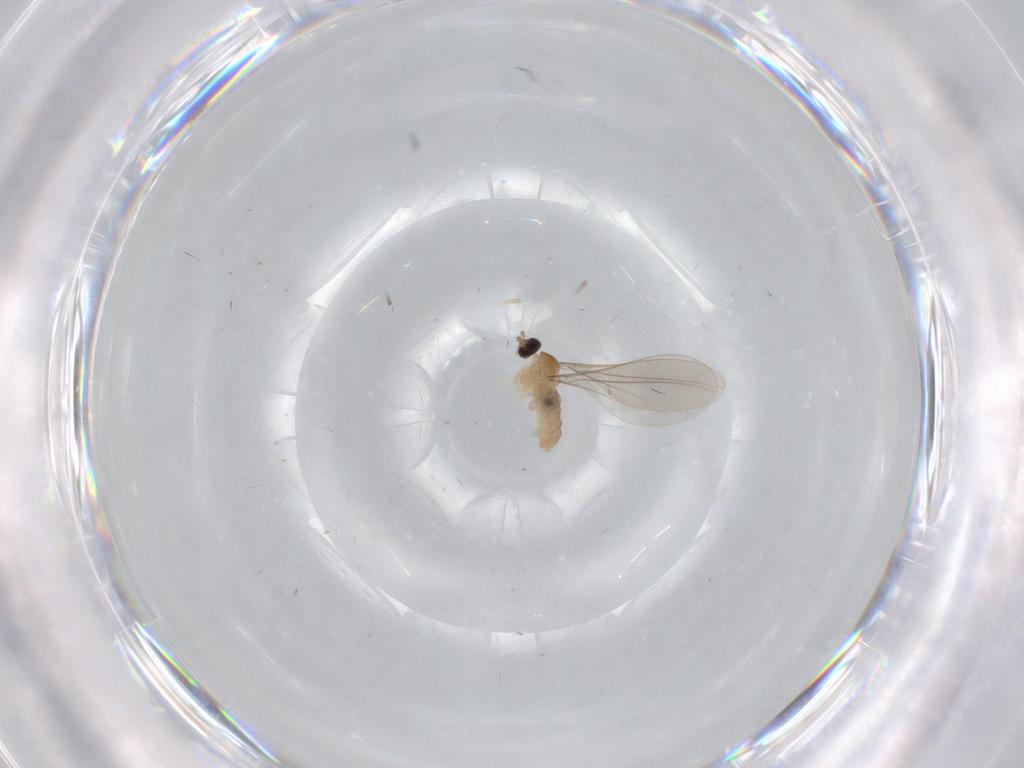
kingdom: Animalia
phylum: Arthropoda
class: Insecta
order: Diptera
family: Cecidomyiidae
